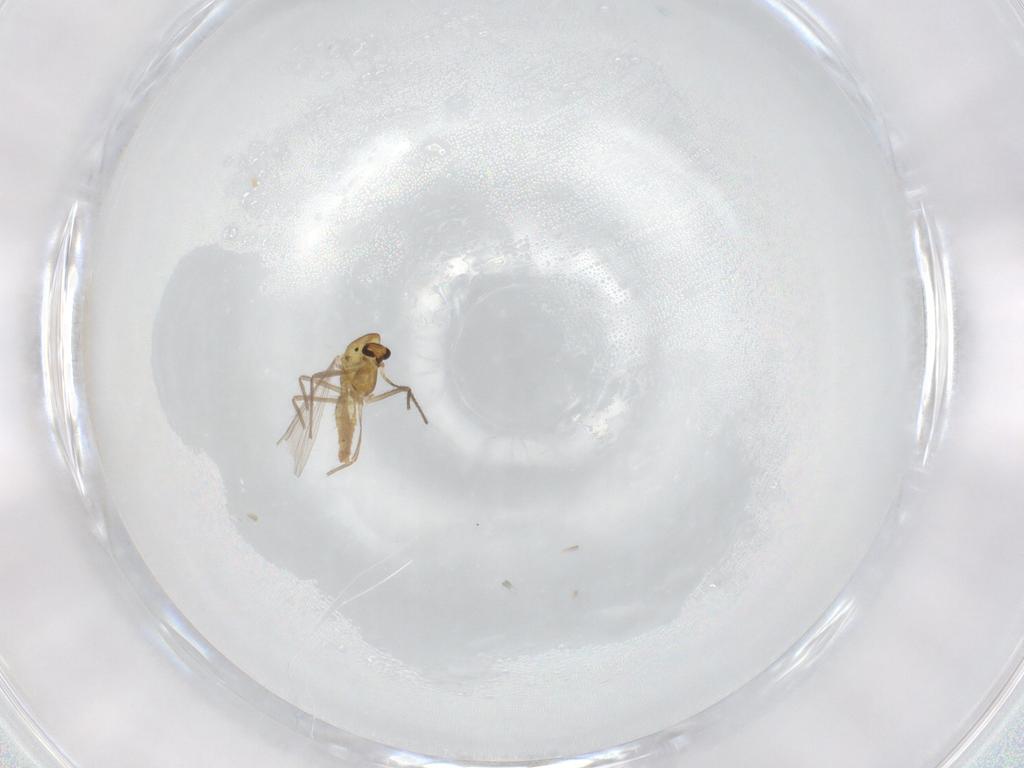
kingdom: Animalia
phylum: Arthropoda
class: Insecta
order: Diptera
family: Chironomidae
